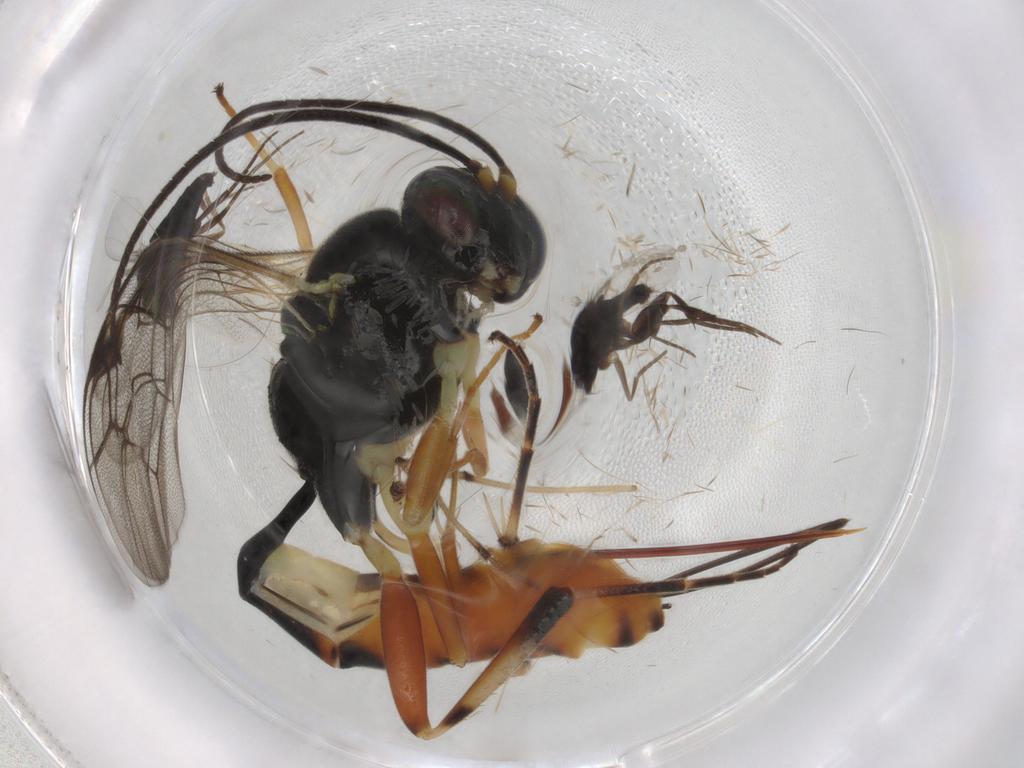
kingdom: Animalia
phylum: Arthropoda
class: Insecta
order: Hymenoptera
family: Ichneumonidae
